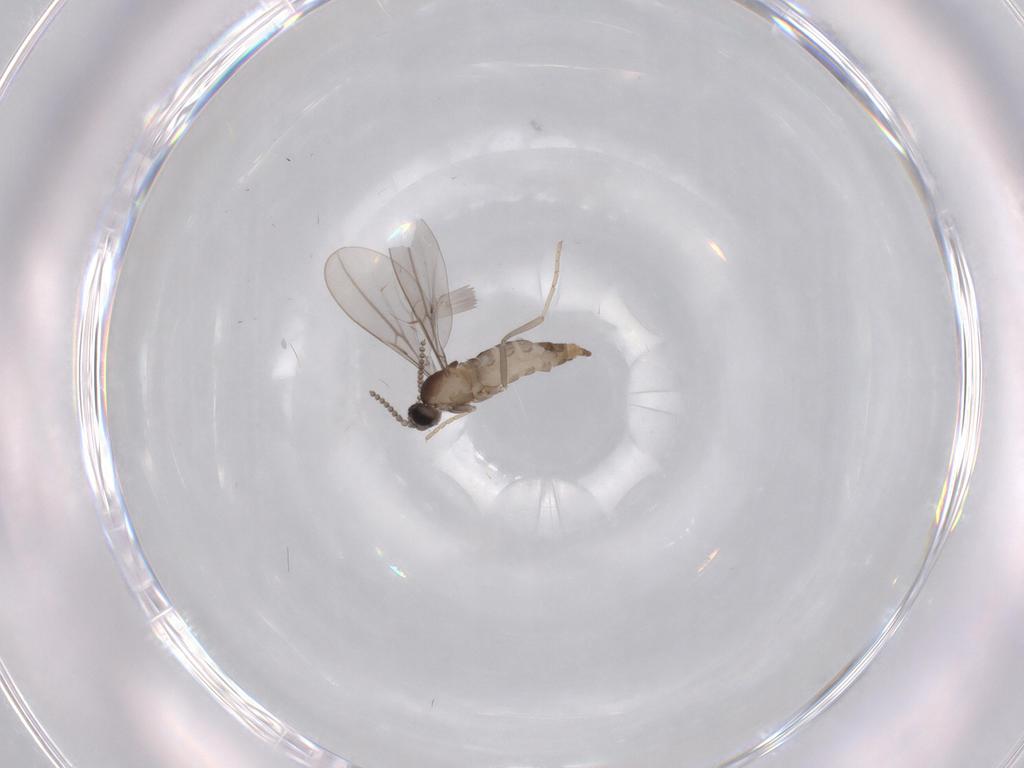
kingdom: Animalia
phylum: Arthropoda
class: Insecta
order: Diptera
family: Cecidomyiidae
